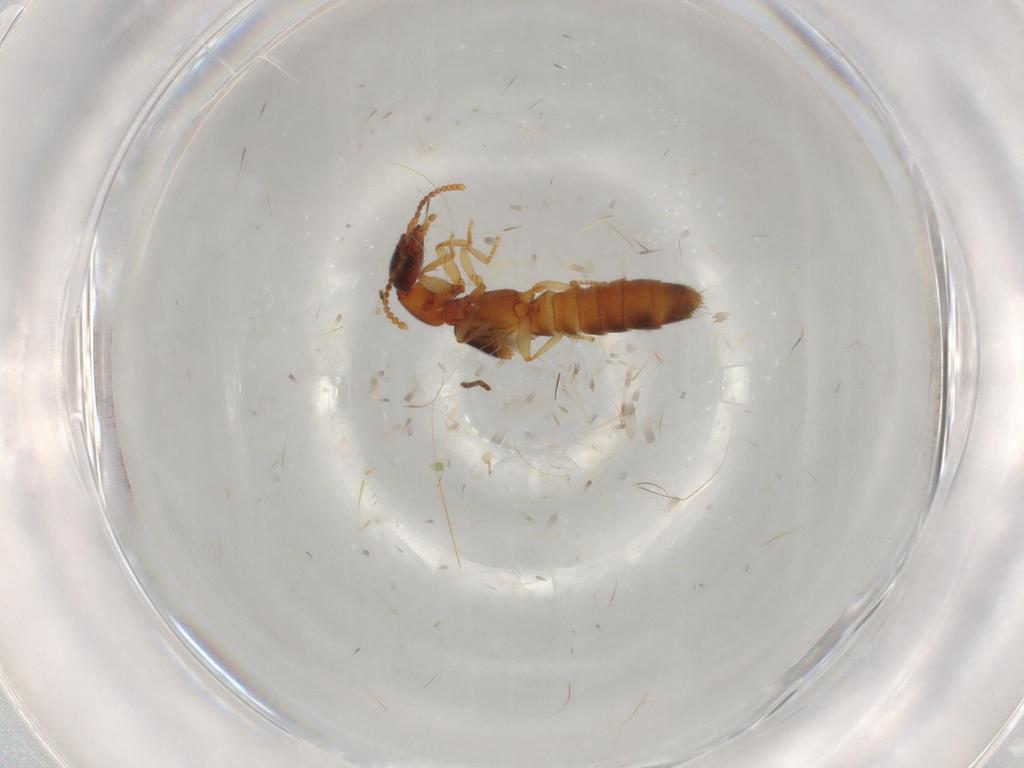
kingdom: Animalia
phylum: Arthropoda
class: Insecta
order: Coleoptera
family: Staphylinidae
